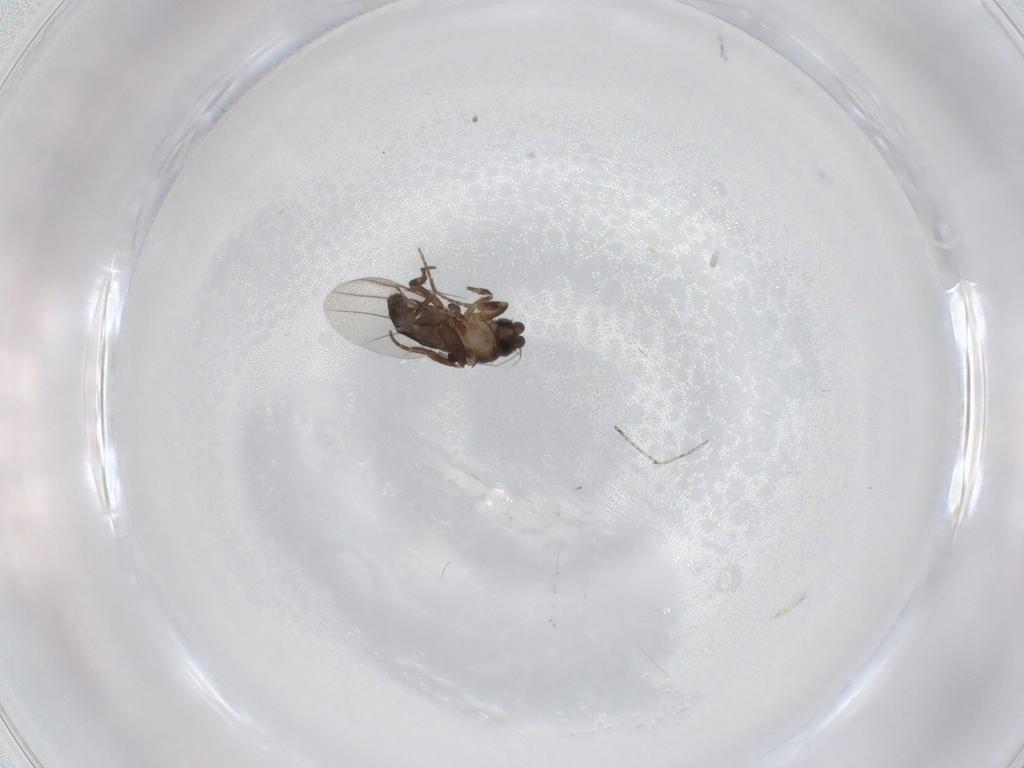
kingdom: Animalia
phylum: Arthropoda
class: Insecta
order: Diptera
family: Phoridae
